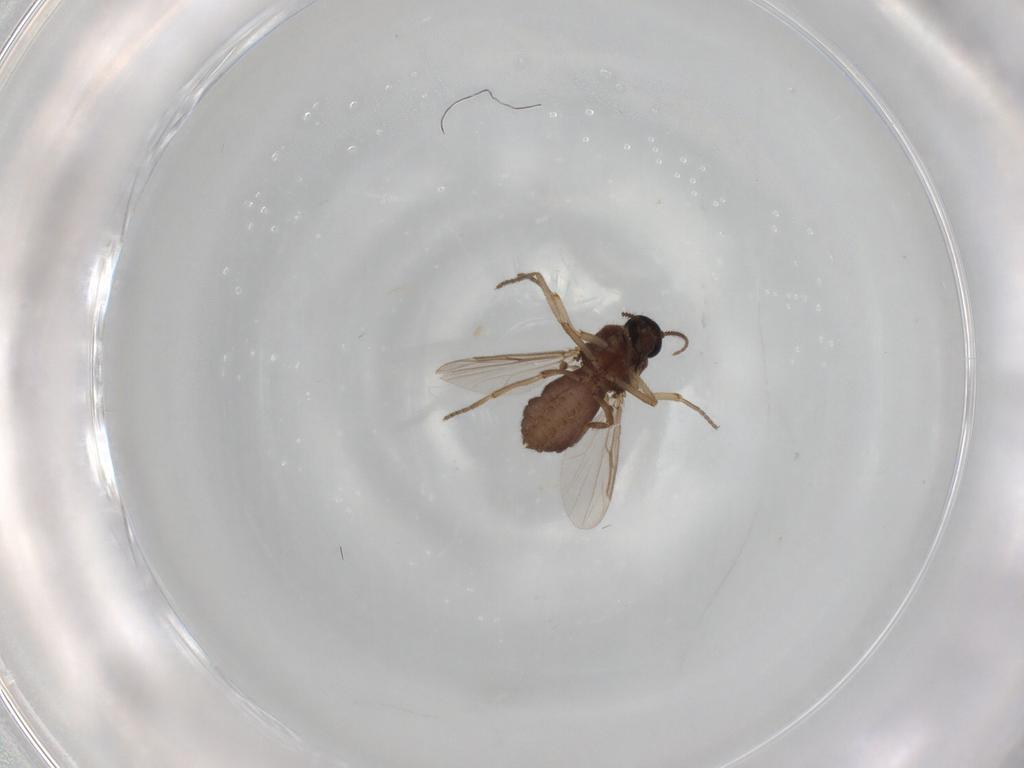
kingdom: Animalia
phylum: Arthropoda
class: Insecta
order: Diptera
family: Ceratopogonidae
